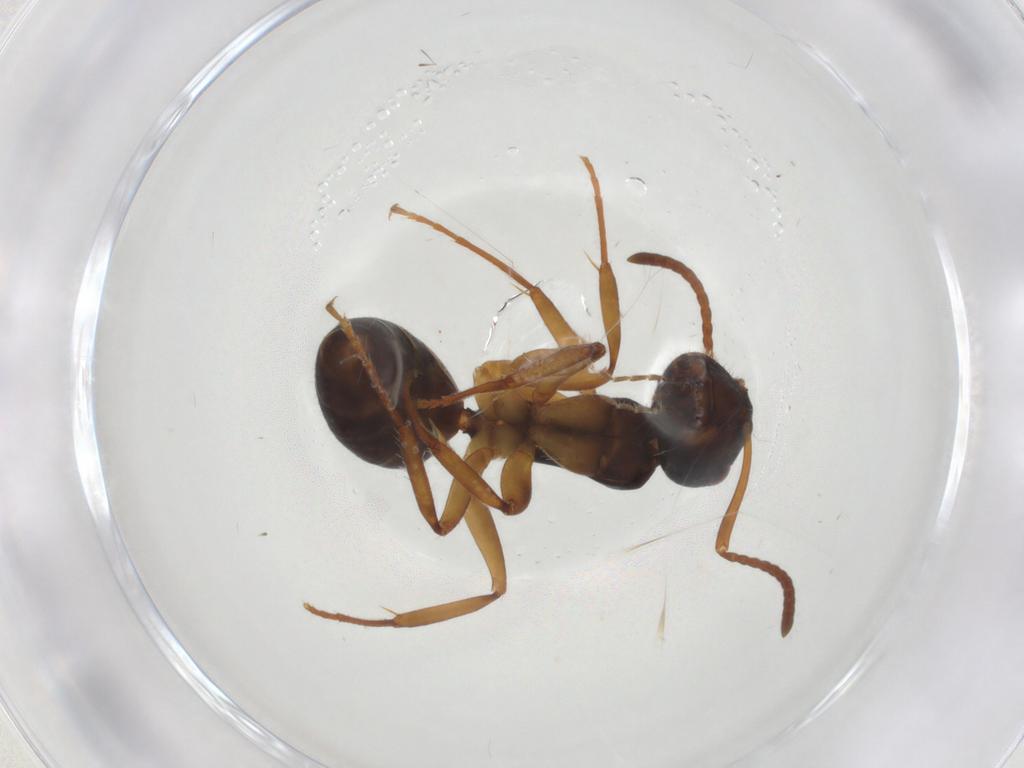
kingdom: Animalia
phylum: Arthropoda
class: Insecta
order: Hymenoptera
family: Formicidae
